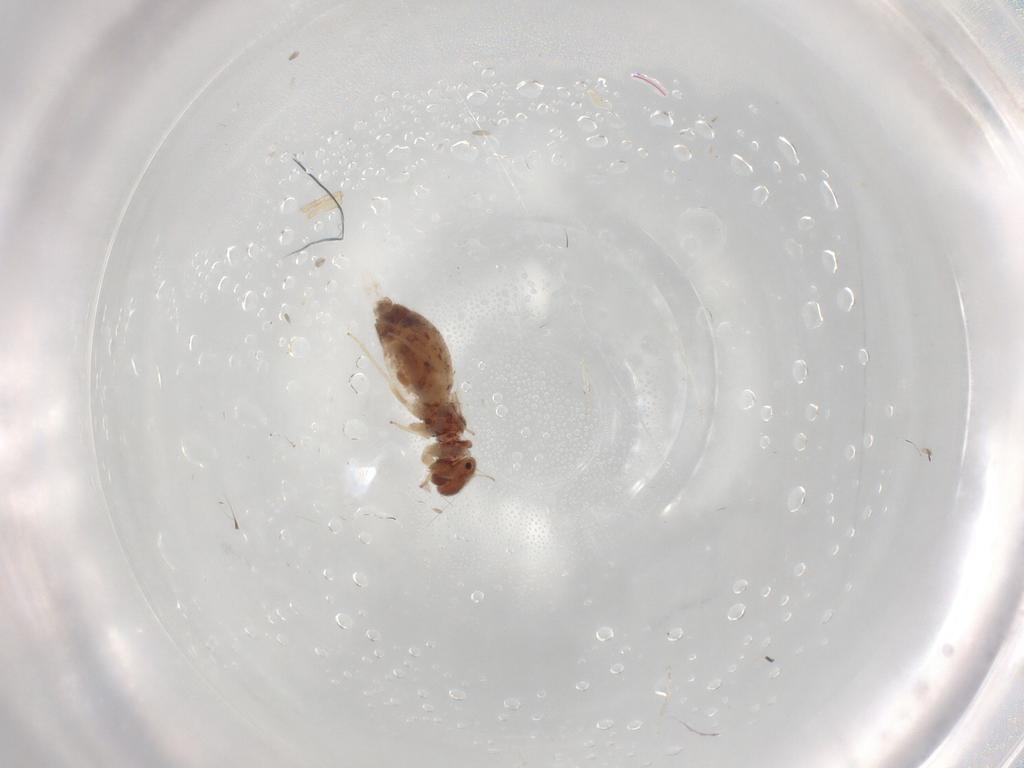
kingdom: Animalia
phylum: Arthropoda
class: Insecta
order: Psocodea
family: Archipsocidae
